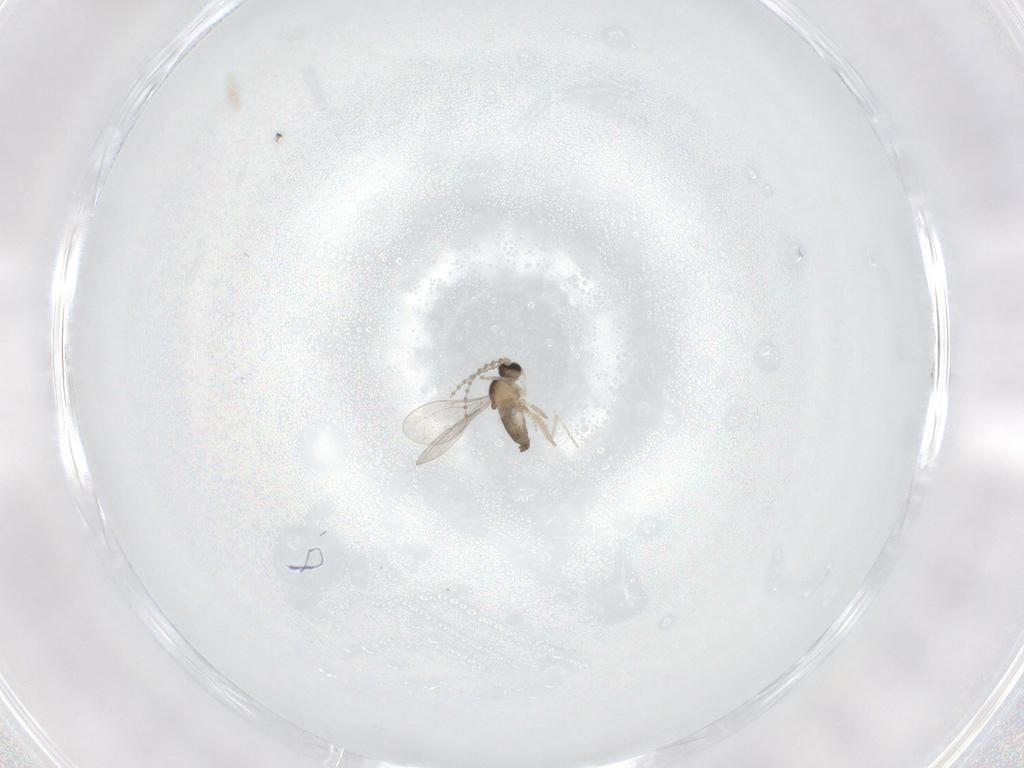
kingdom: Animalia
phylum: Arthropoda
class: Insecta
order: Diptera
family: Cecidomyiidae
